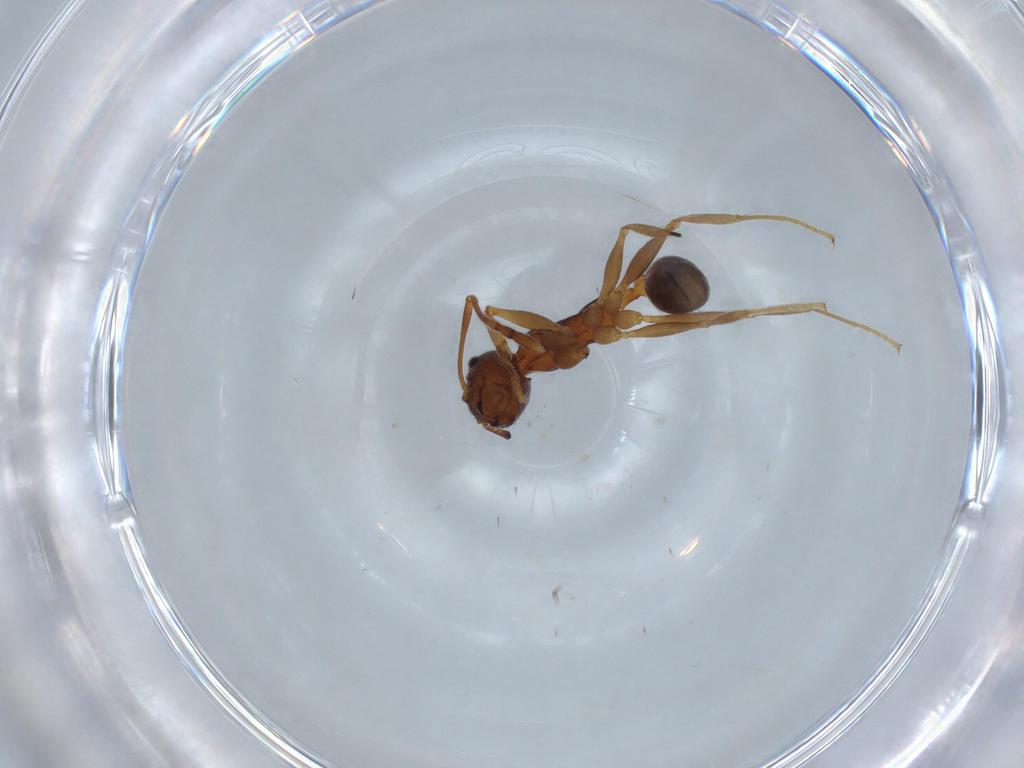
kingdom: Animalia
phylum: Arthropoda
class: Insecta
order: Hymenoptera
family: Formicidae
